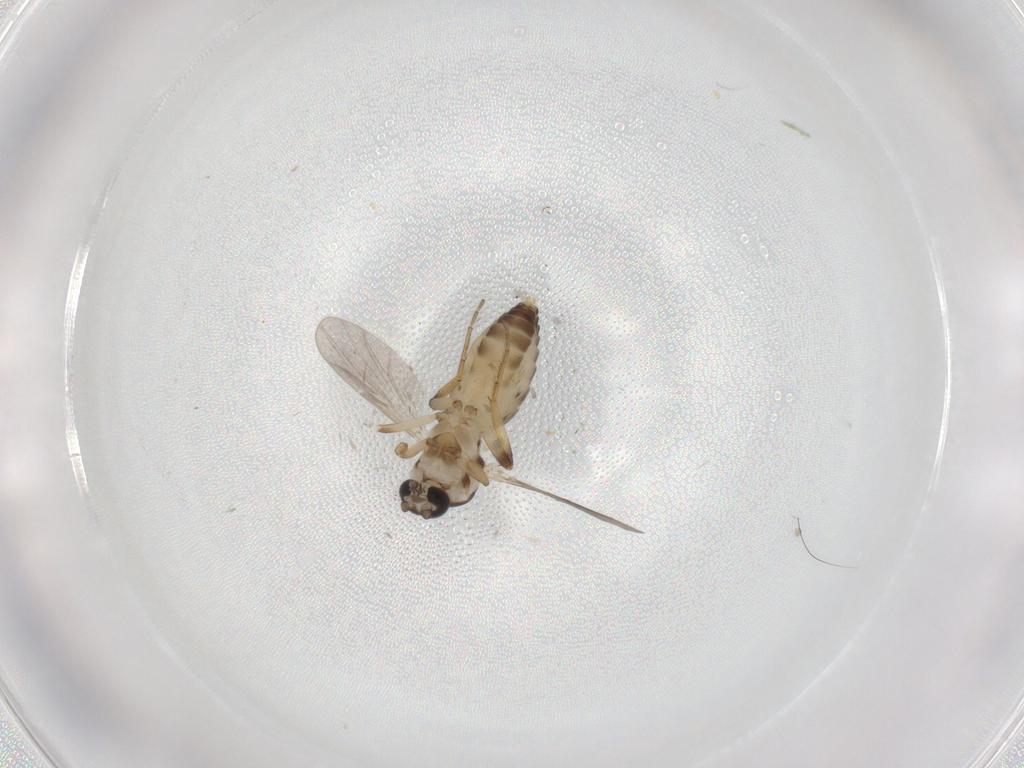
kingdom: Animalia
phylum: Arthropoda
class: Insecta
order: Diptera
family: Ceratopogonidae
